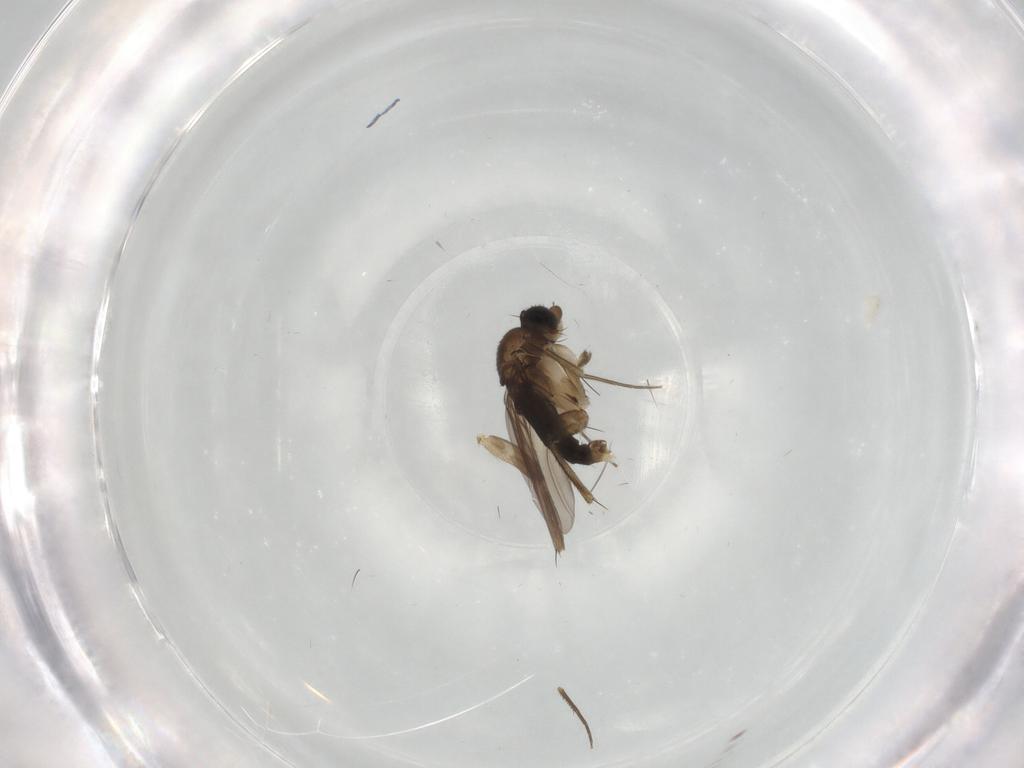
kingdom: Animalia
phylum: Arthropoda
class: Insecta
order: Diptera
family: Phoridae
